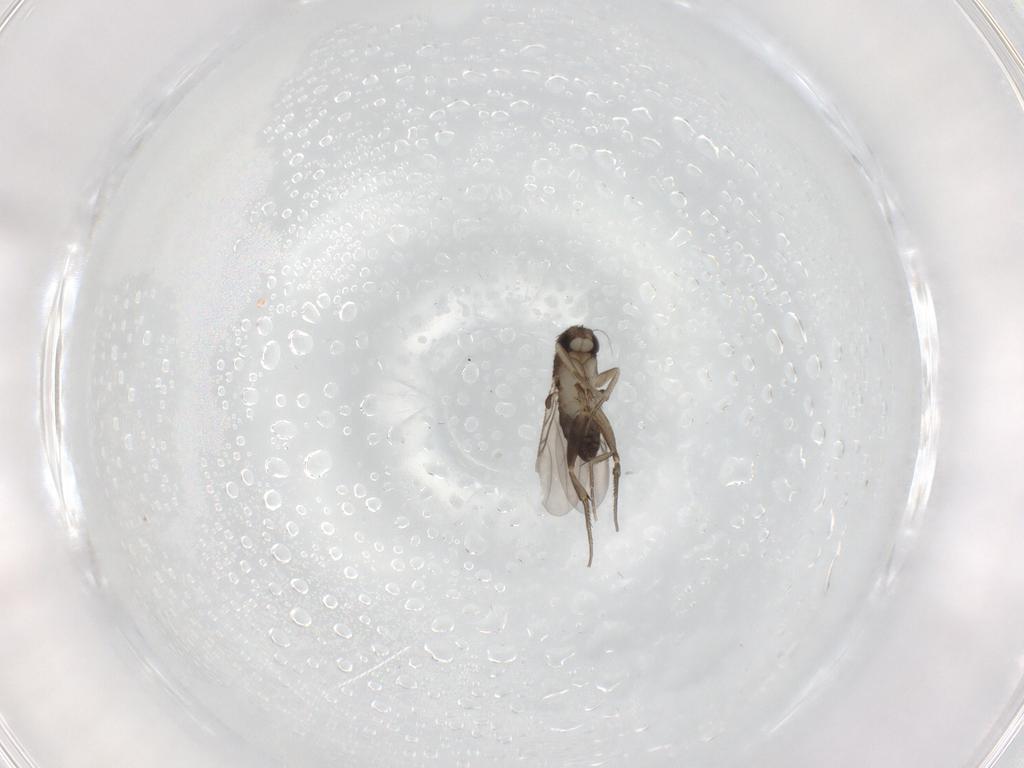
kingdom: Animalia
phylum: Arthropoda
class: Insecta
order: Diptera
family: Phoridae
